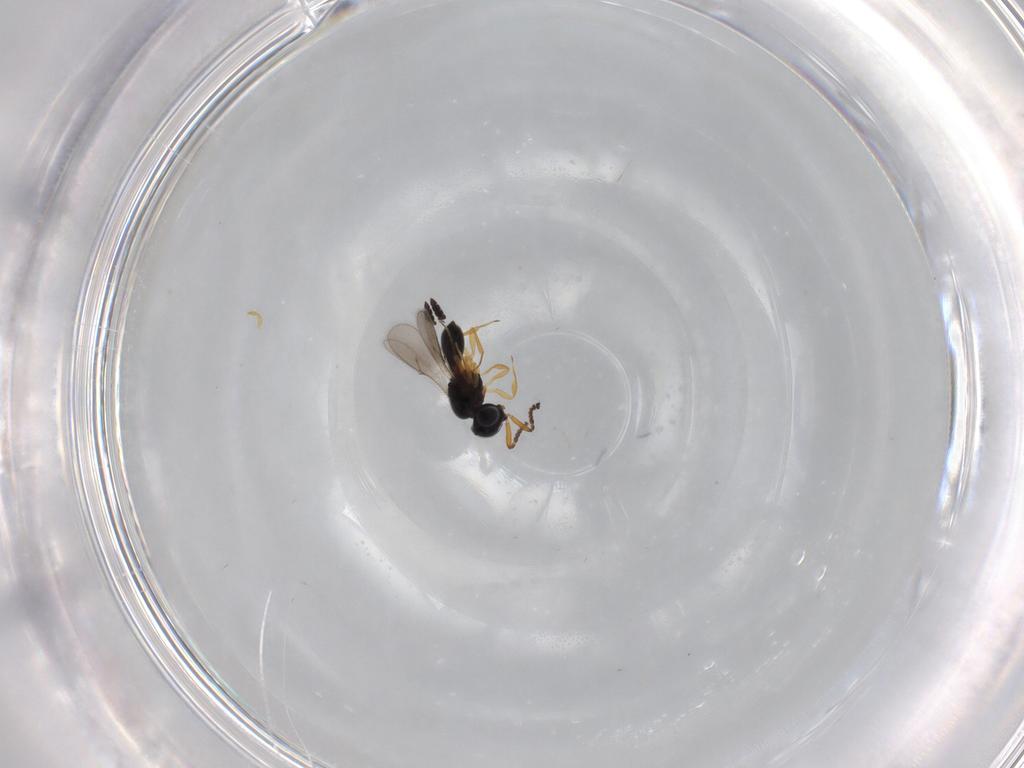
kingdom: Animalia
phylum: Arthropoda
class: Insecta
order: Hymenoptera
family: Scelionidae
